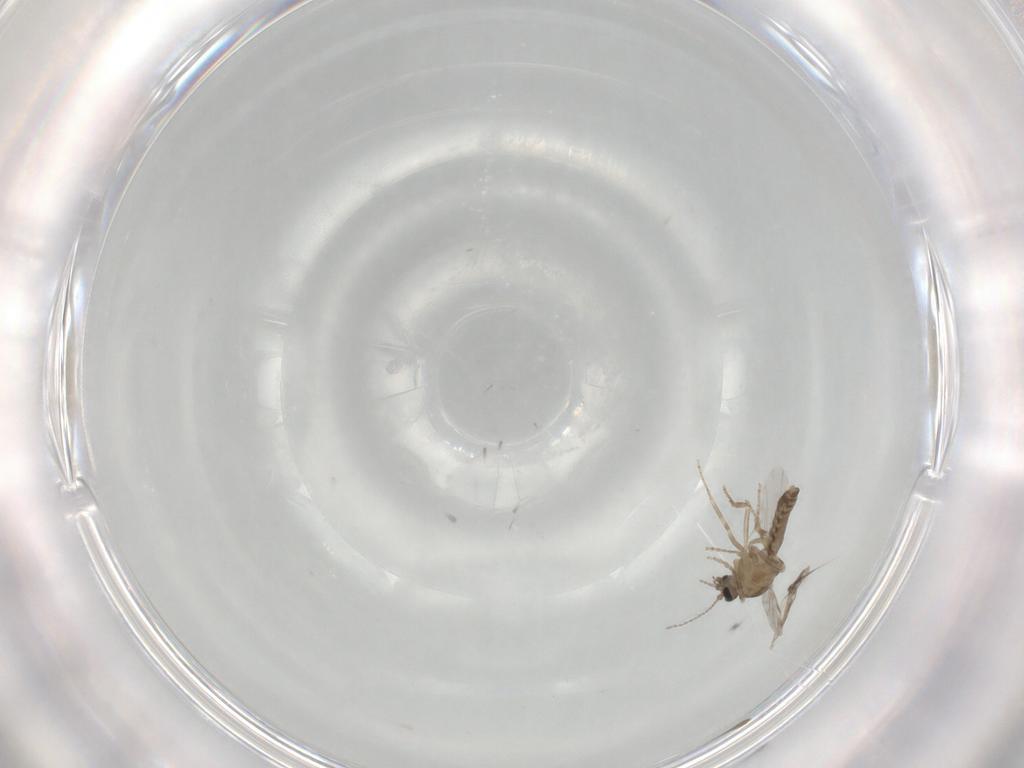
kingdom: Animalia
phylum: Arthropoda
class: Insecta
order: Diptera
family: Ceratopogonidae
